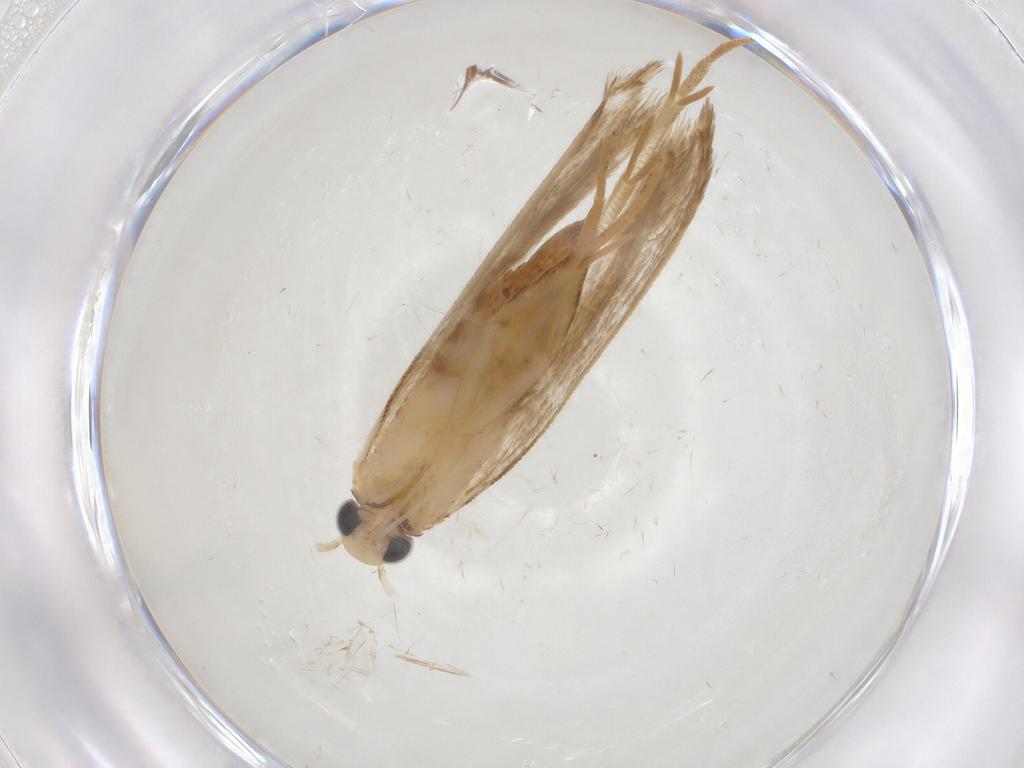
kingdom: Animalia
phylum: Arthropoda
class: Insecta
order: Lepidoptera
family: Gelechiidae
